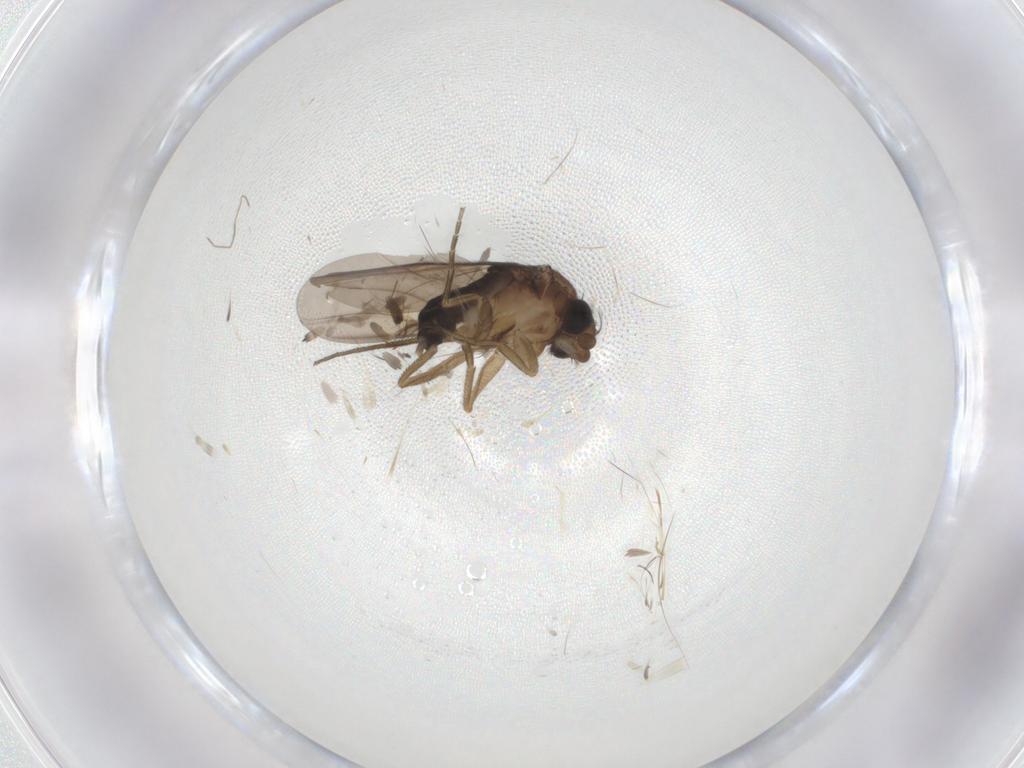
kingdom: Animalia
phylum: Arthropoda
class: Insecta
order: Diptera
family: Phoridae
